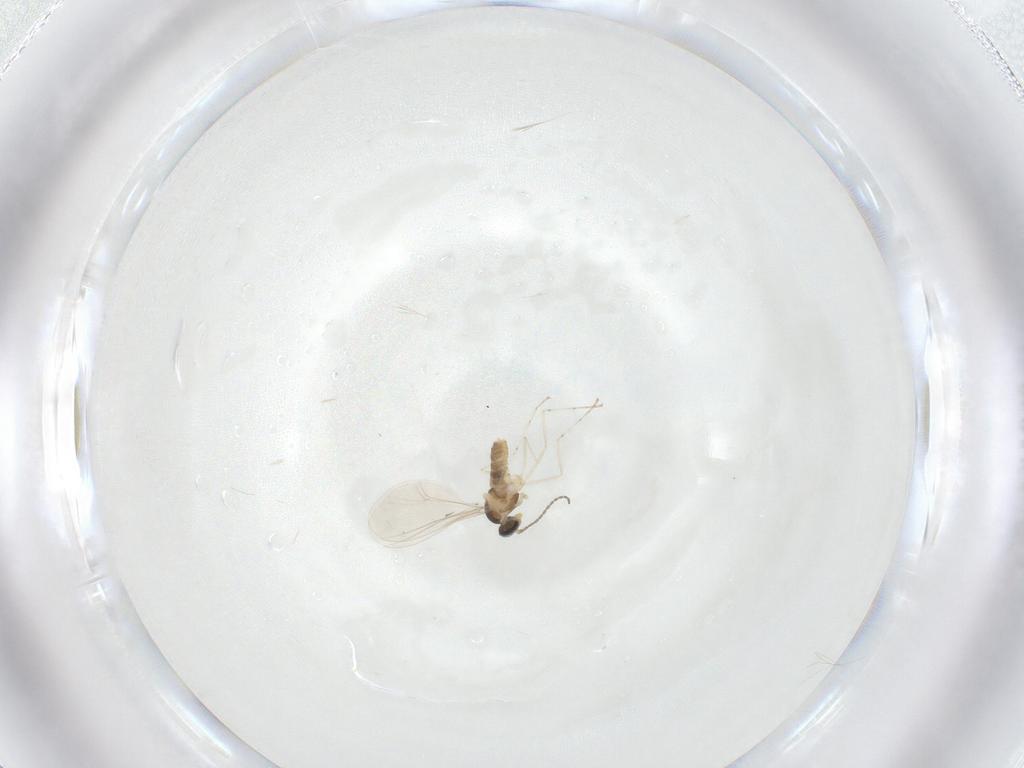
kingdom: Animalia
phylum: Arthropoda
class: Insecta
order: Diptera
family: Cecidomyiidae
